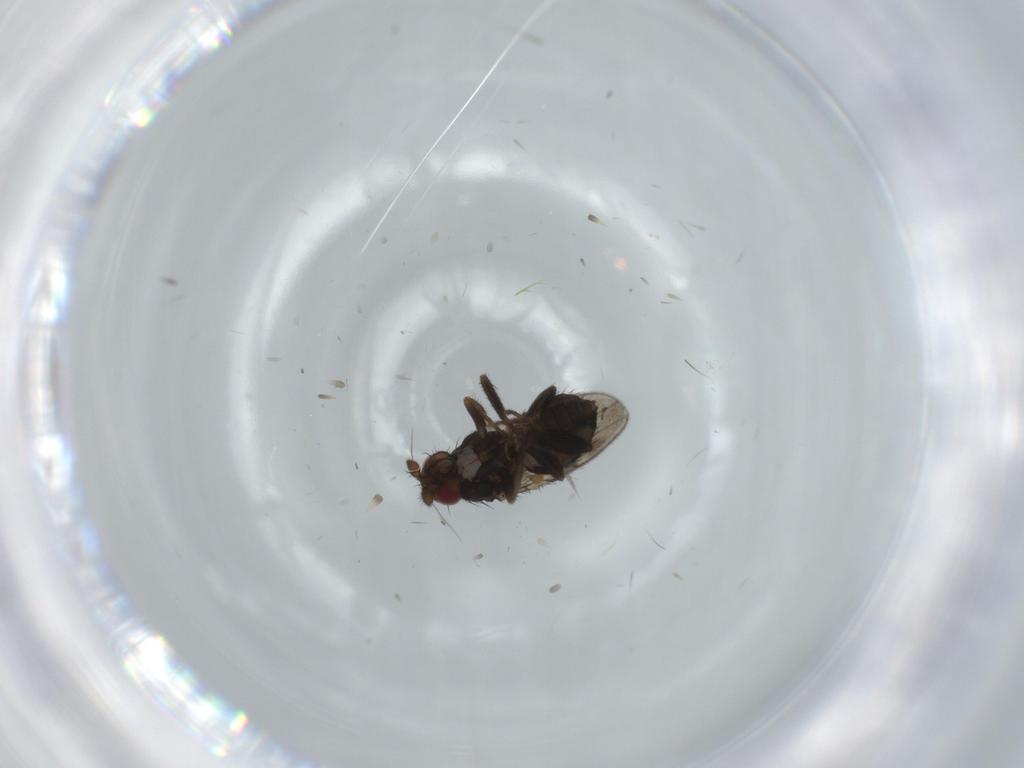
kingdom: Animalia
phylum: Arthropoda
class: Insecta
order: Diptera
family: Sphaeroceridae
